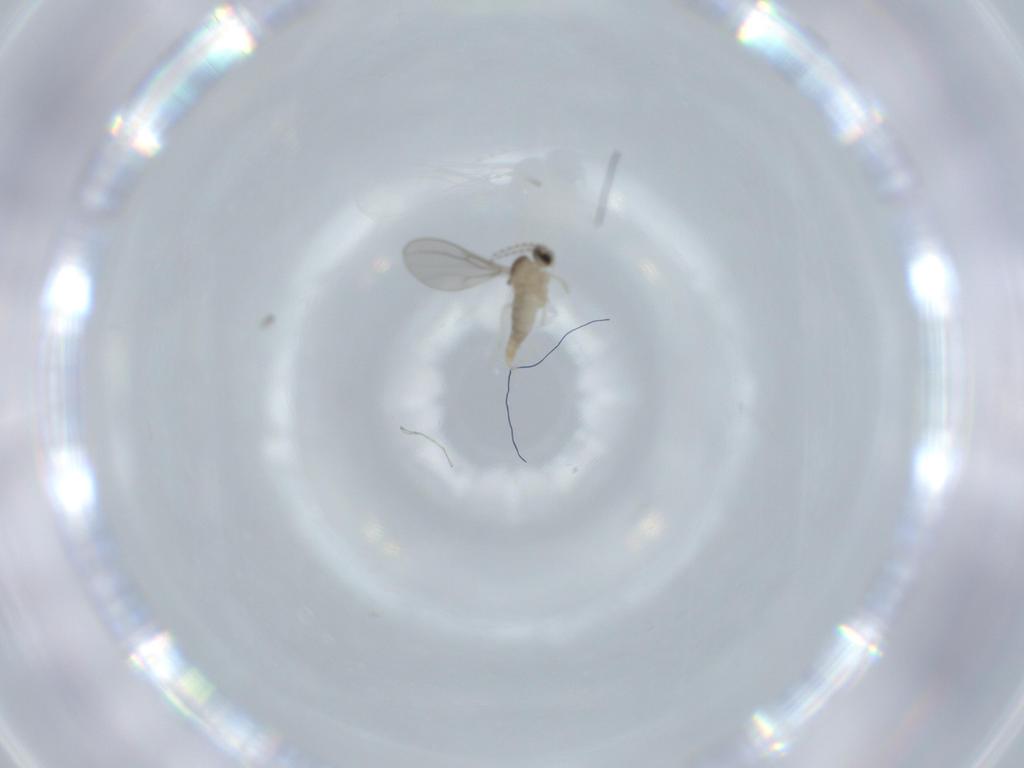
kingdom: Animalia
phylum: Arthropoda
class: Insecta
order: Diptera
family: Cecidomyiidae
